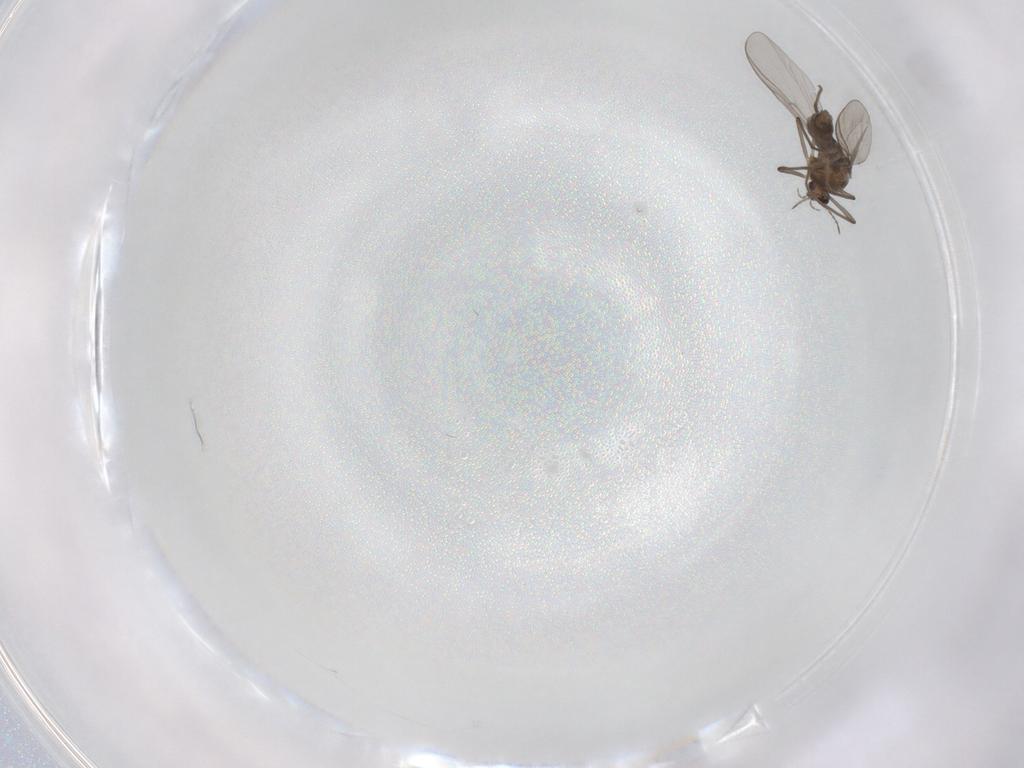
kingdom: Animalia
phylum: Arthropoda
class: Insecta
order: Diptera
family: Chironomidae
